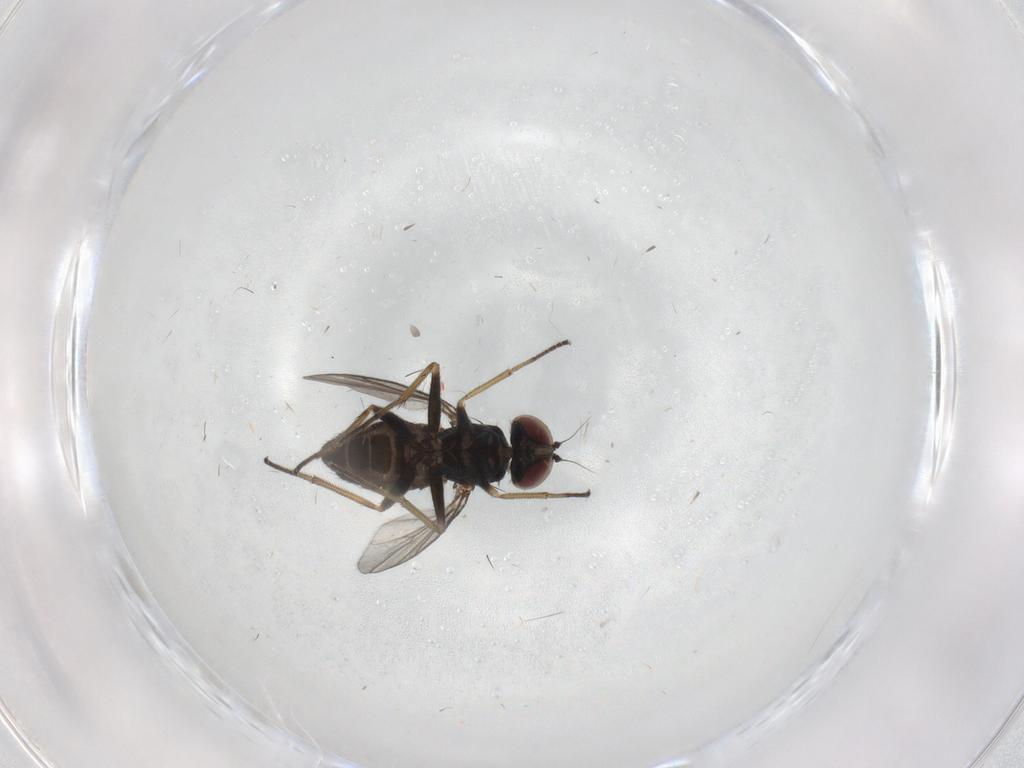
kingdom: Animalia
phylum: Arthropoda
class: Insecta
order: Diptera
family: Dolichopodidae
